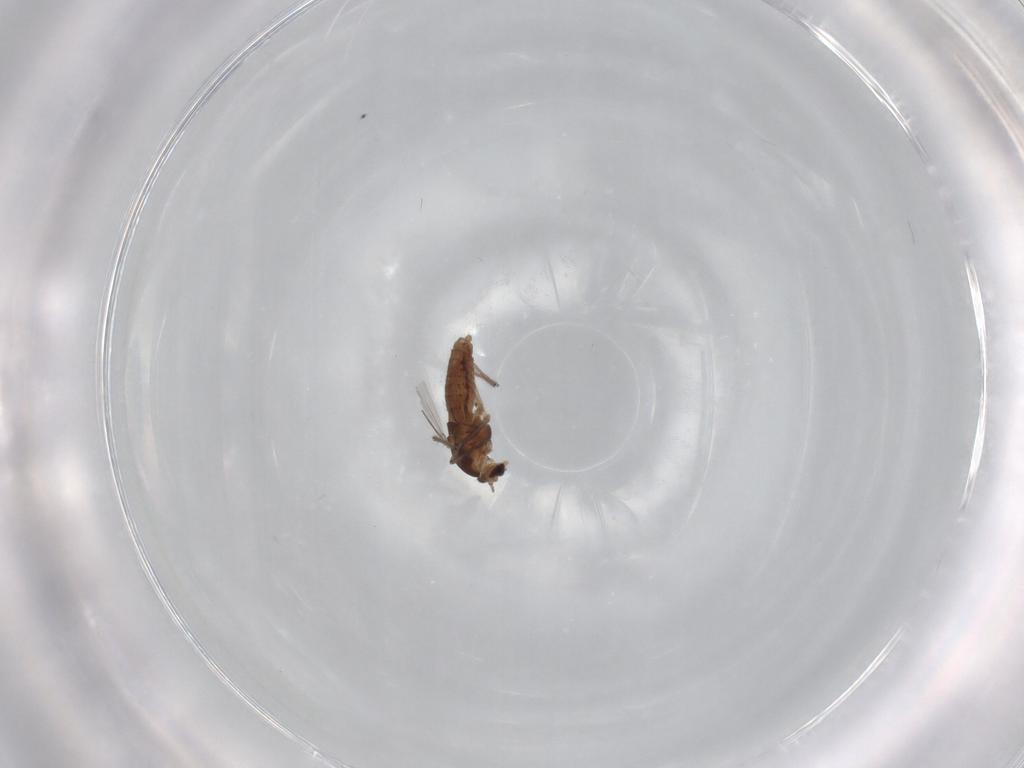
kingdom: Animalia
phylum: Arthropoda
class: Insecta
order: Diptera
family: Chironomidae
